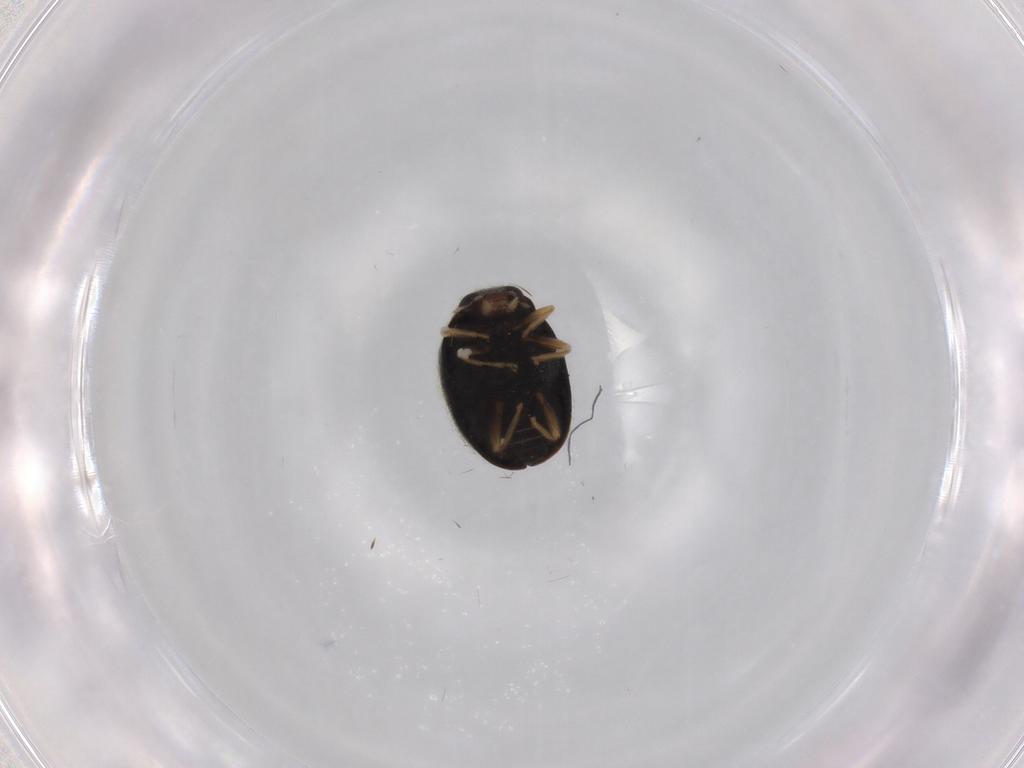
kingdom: Animalia
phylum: Arthropoda
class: Insecta
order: Coleoptera
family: Coccinellidae
